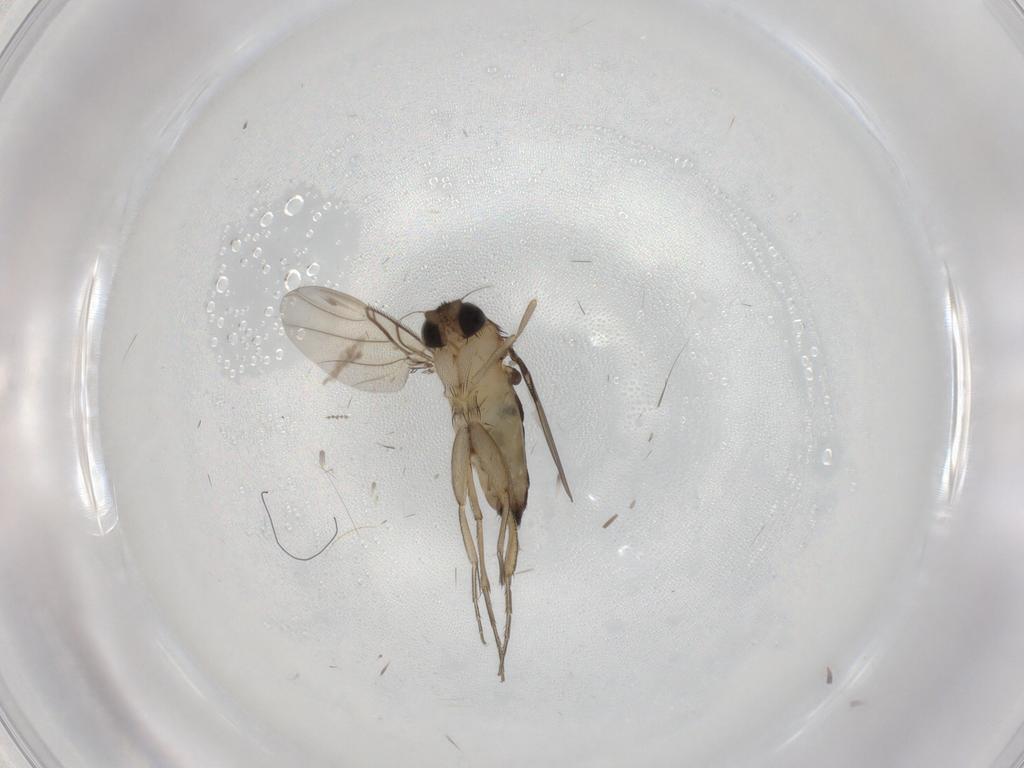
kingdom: Animalia
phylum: Arthropoda
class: Insecta
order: Diptera
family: Phoridae
